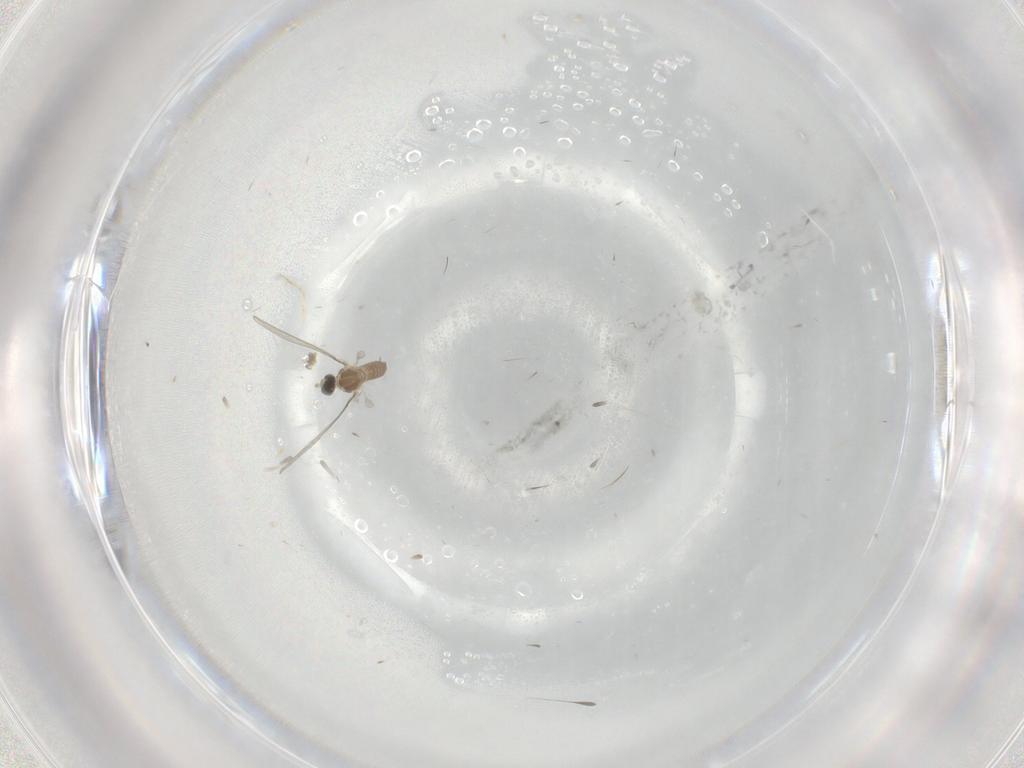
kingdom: Animalia
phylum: Arthropoda
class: Insecta
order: Diptera
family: Cecidomyiidae
